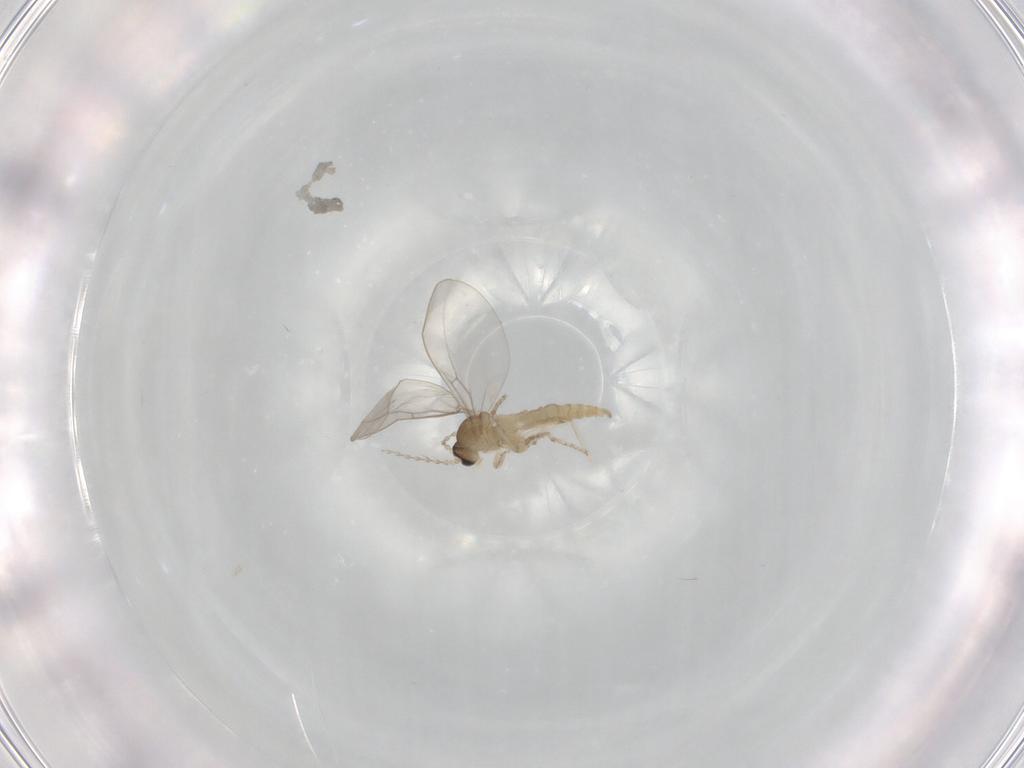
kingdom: Animalia
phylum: Arthropoda
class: Insecta
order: Diptera
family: Cecidomyiidae
